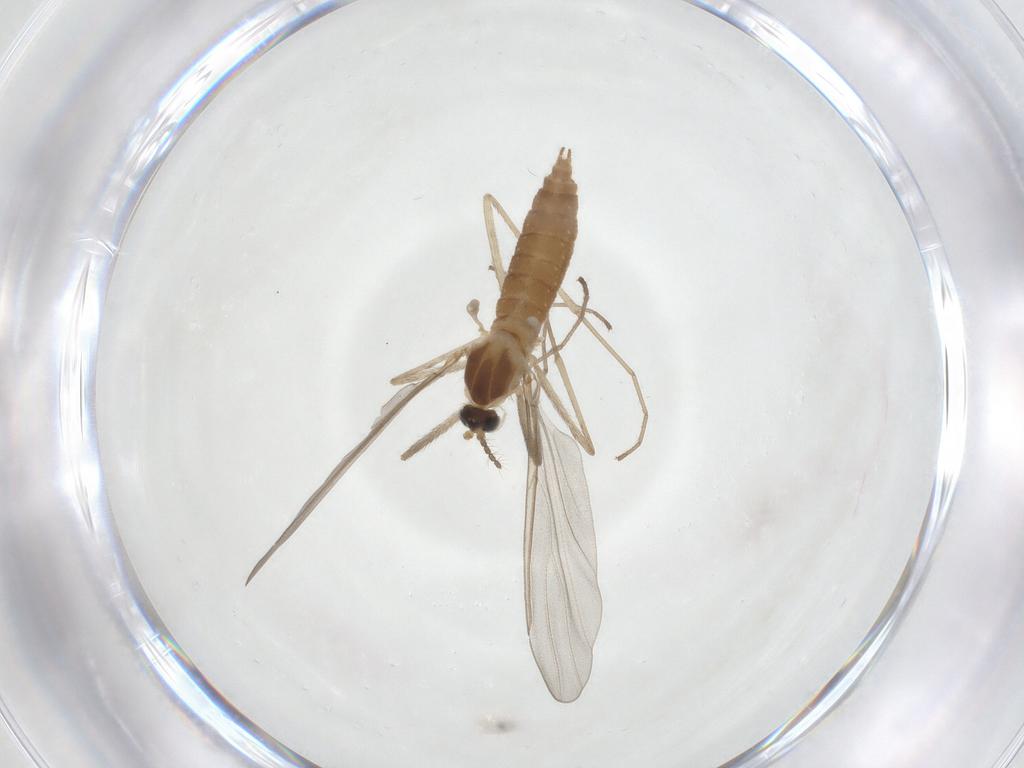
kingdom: Animalia
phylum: Arthropoda
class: Insecta
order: Diptera
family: Cecidomyiidae
